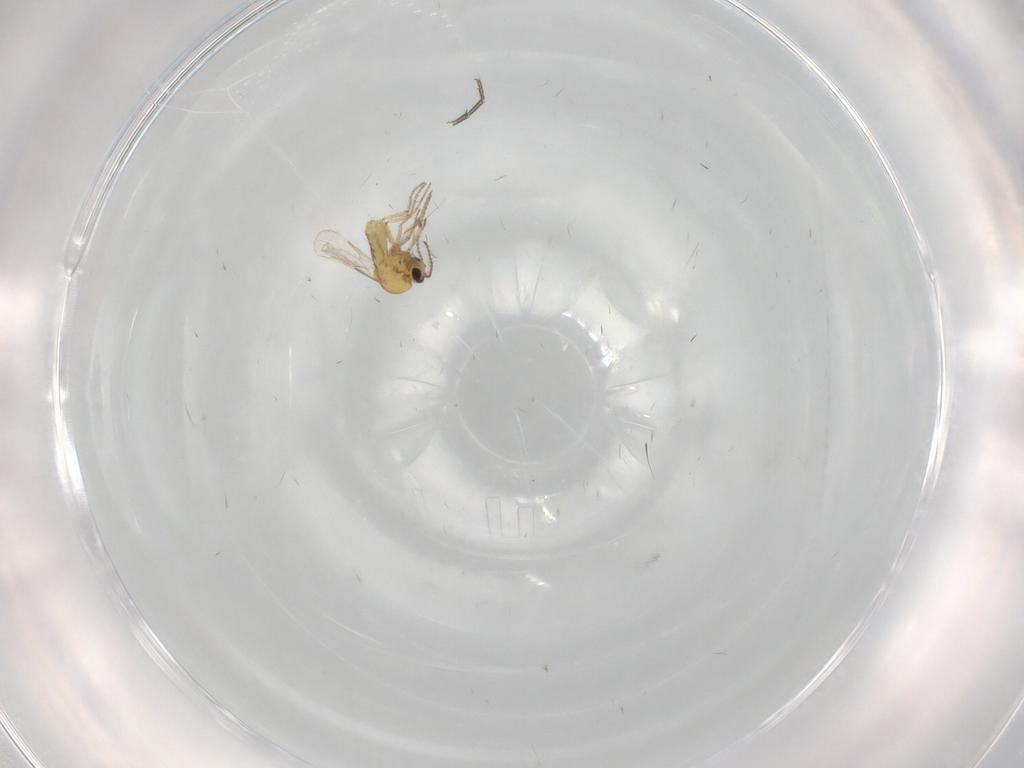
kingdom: Animalia
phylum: Arthropoda
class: Insecta
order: Diptera
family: Ceratopogonidae
